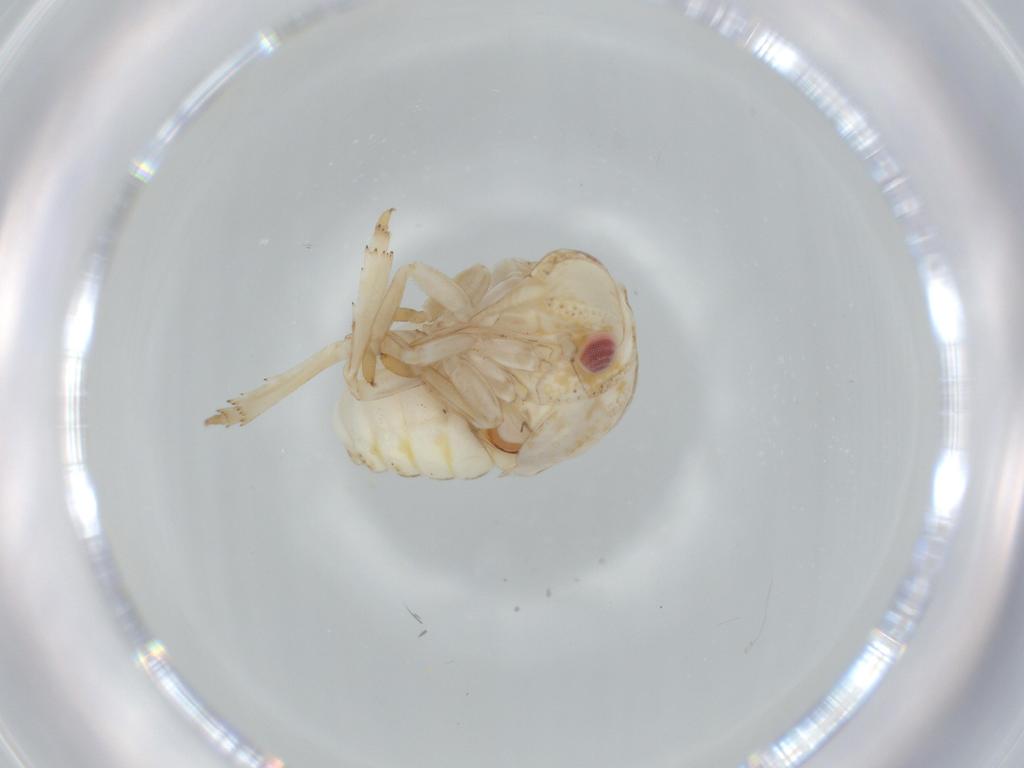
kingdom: Animalia
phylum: Arthropoda
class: Insecta
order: Hemiptera
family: Acanaloniidae
